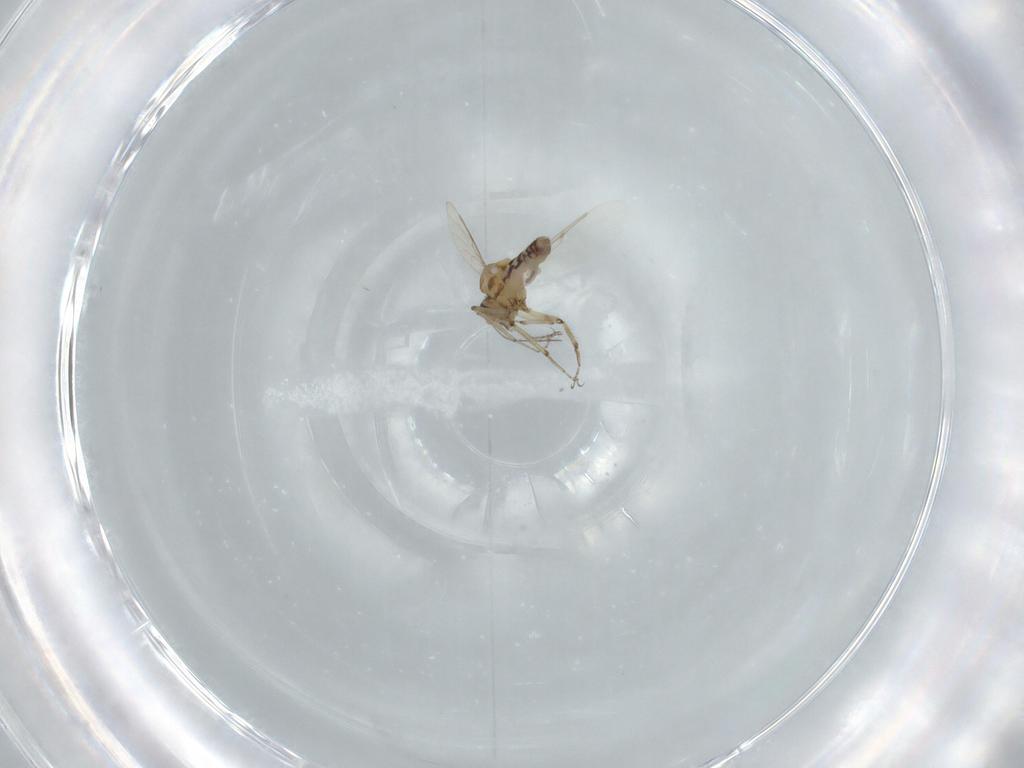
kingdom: Animalia
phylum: Arthropoda
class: Insecta
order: Diptera
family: Ceratopogonidae
